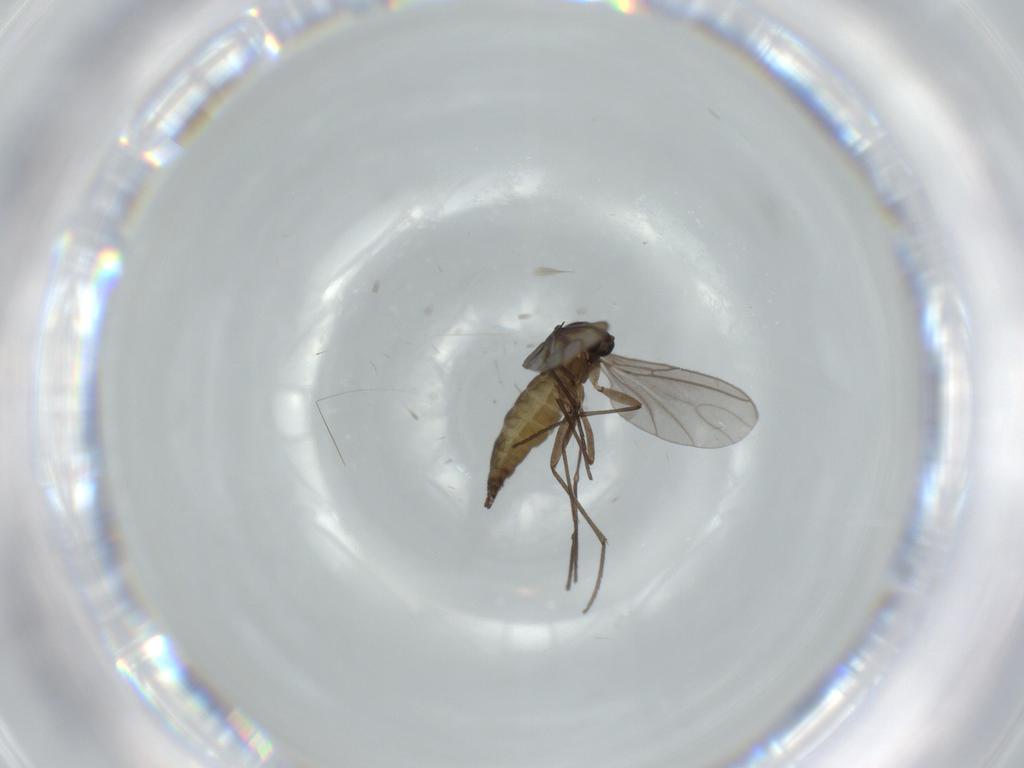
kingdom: Animalia
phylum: Arthropoda
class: Insecta
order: Diptera
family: Sciaridae
